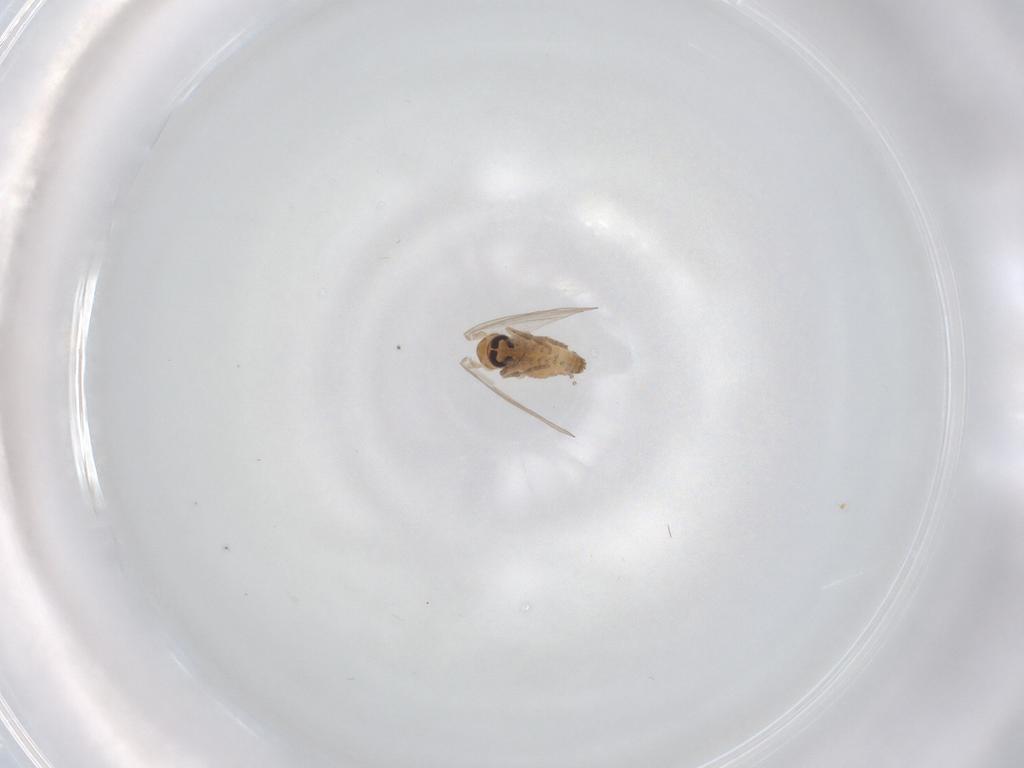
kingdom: Animalia
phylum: Arthropoda
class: Insecta
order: Diptera
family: Psychodidae
